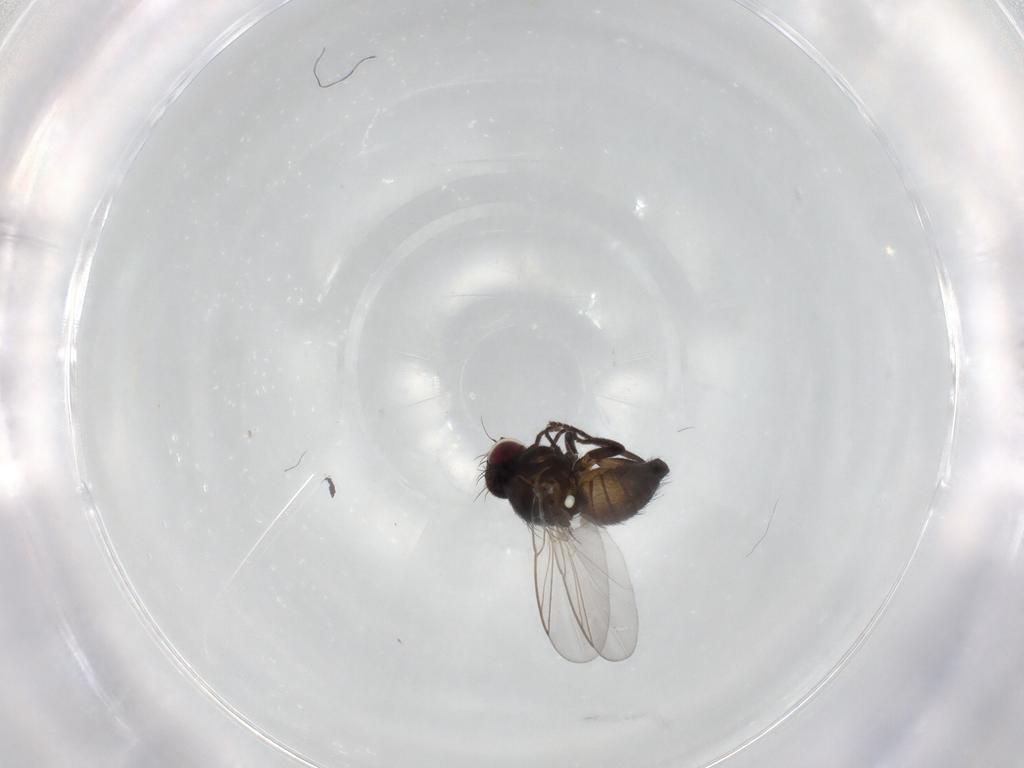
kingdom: Animalia
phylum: Arthropoda
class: Insecta
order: Diptera
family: Agromyzidae
